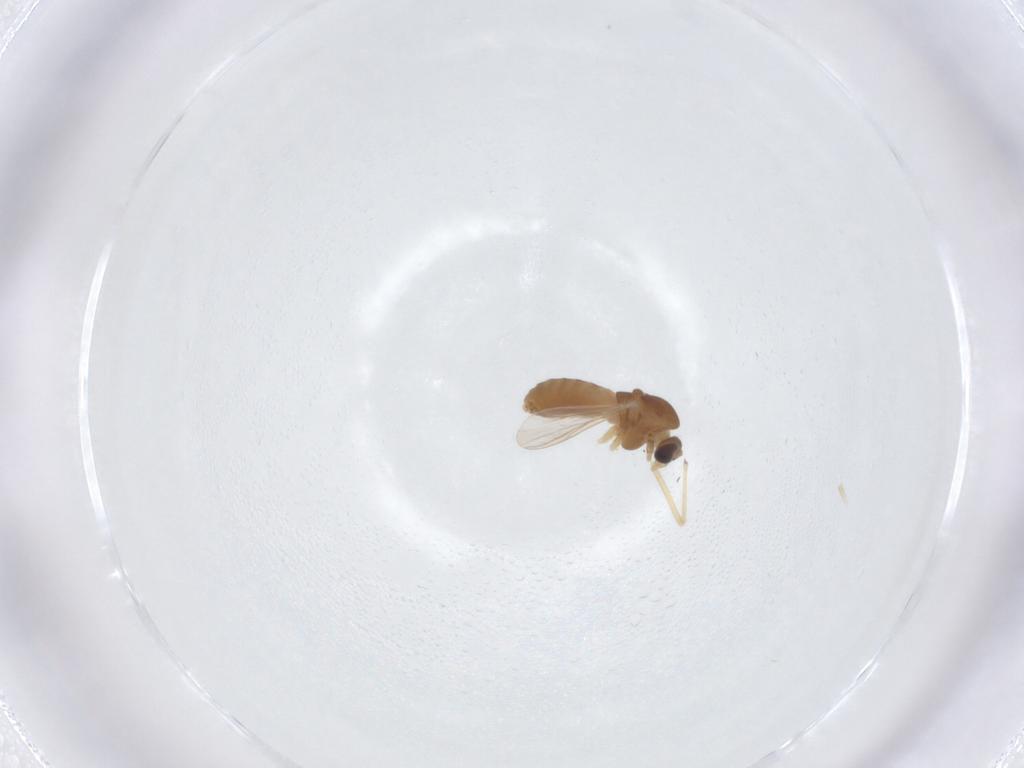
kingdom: Animalia
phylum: Arthropoda
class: Insecta
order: Diptera
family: Chironomidae
